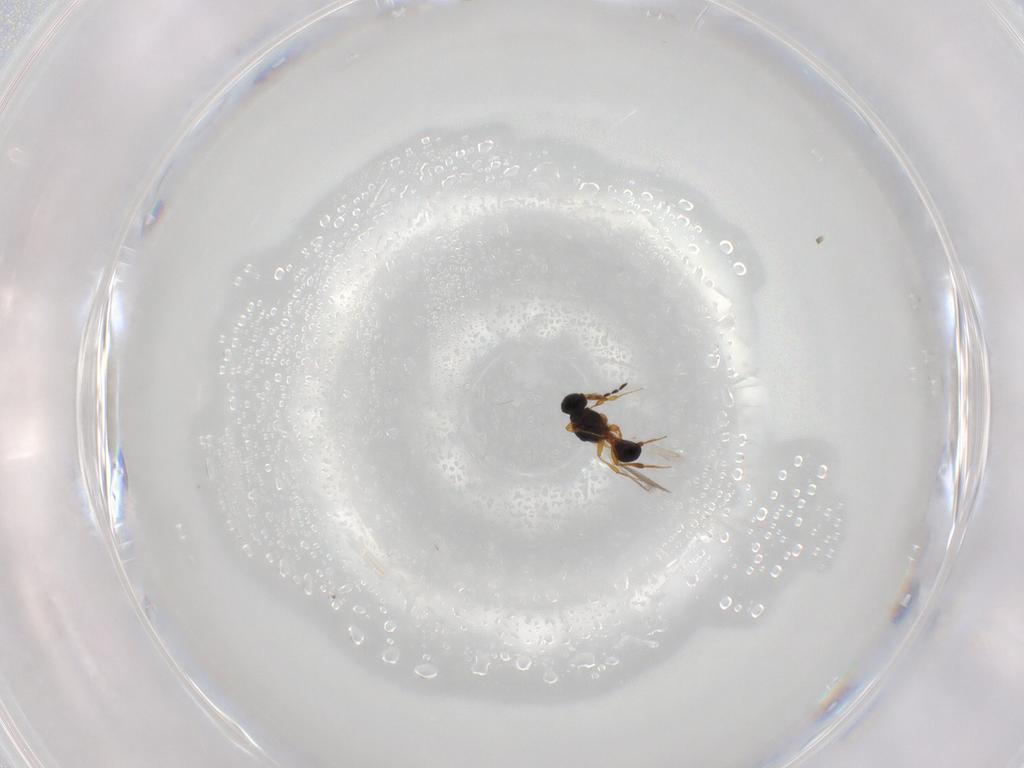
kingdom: Animalia
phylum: Arthropoda
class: Insecta
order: Hymenoptera
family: Platygastridae
